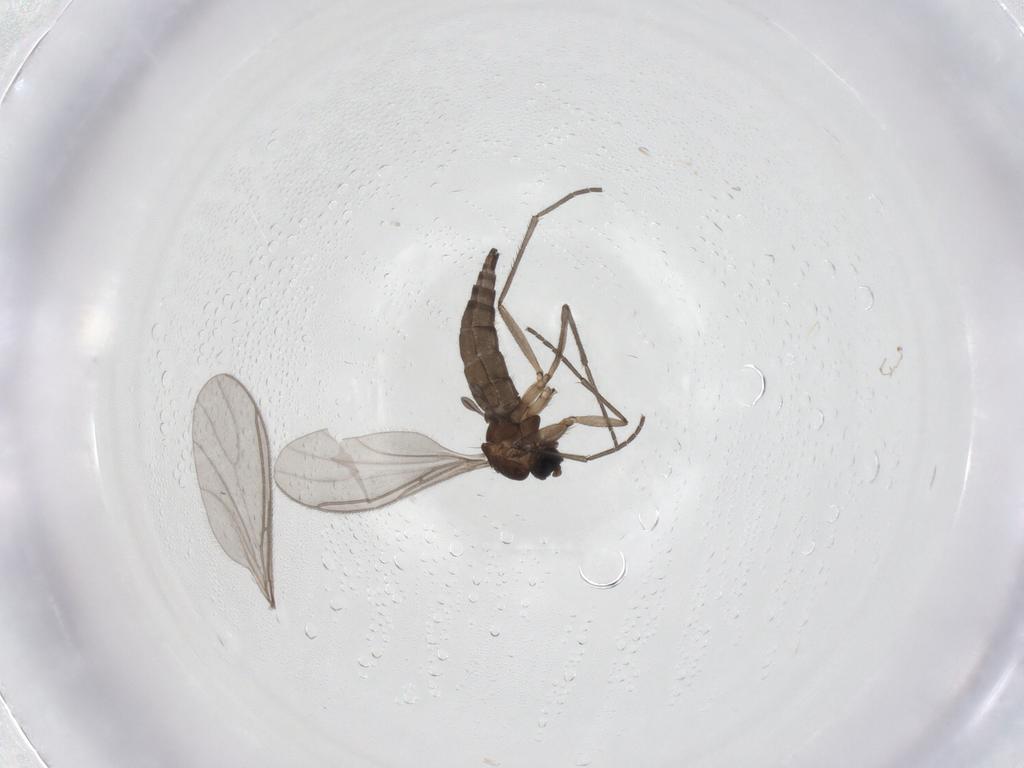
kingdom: Animalia
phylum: Arthropoda
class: Insecta
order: Diptera
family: Sciaridae
